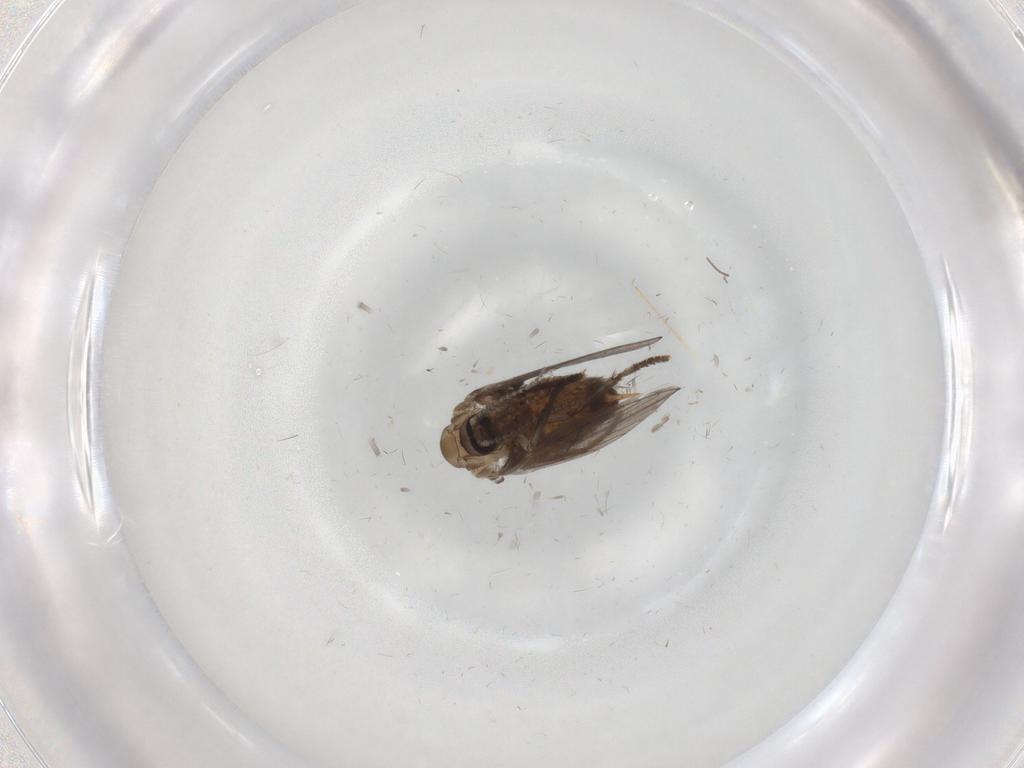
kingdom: Animalia
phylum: Arthropoda
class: Insecta
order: Diptera
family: Psychodidae
